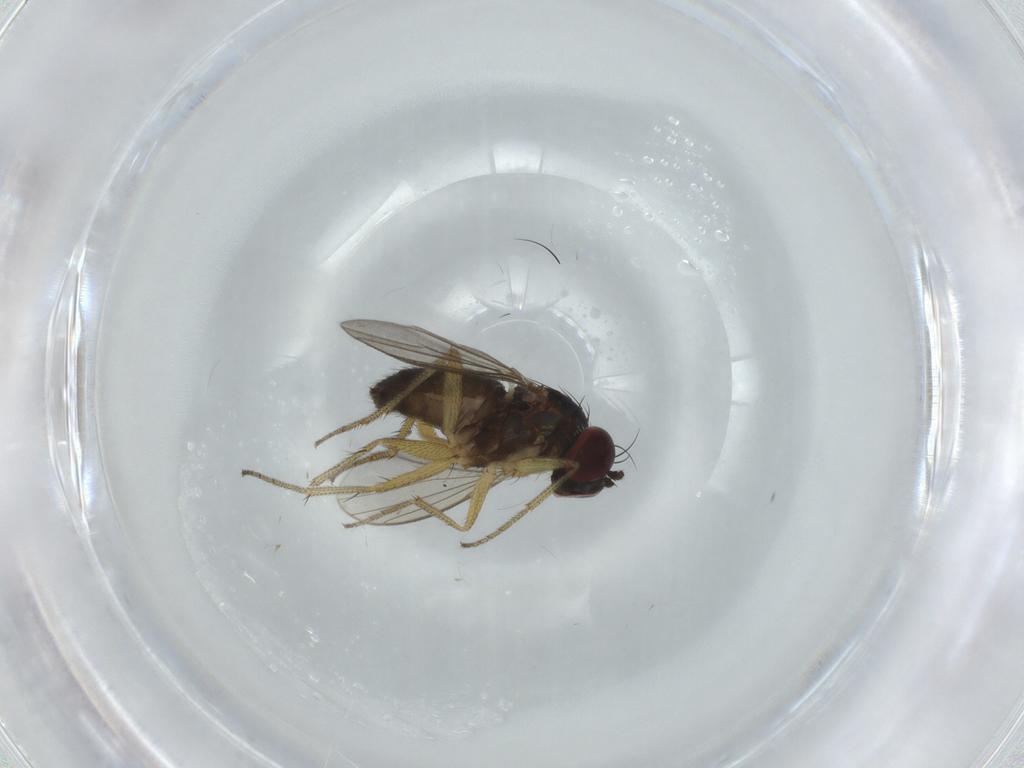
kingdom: Animalia
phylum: Arthropoda
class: Insecta
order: Diptera
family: Dolichopodidae
